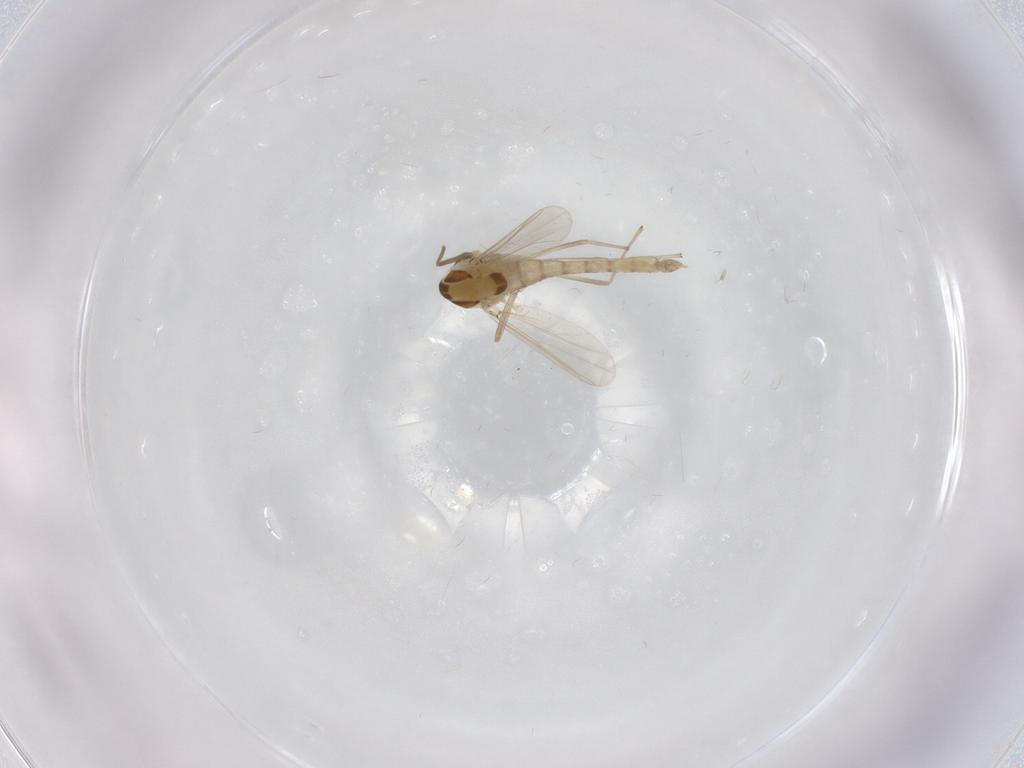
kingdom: Animalia
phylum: Arthropoda
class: Insecta
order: Diptera
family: Chironomidae
